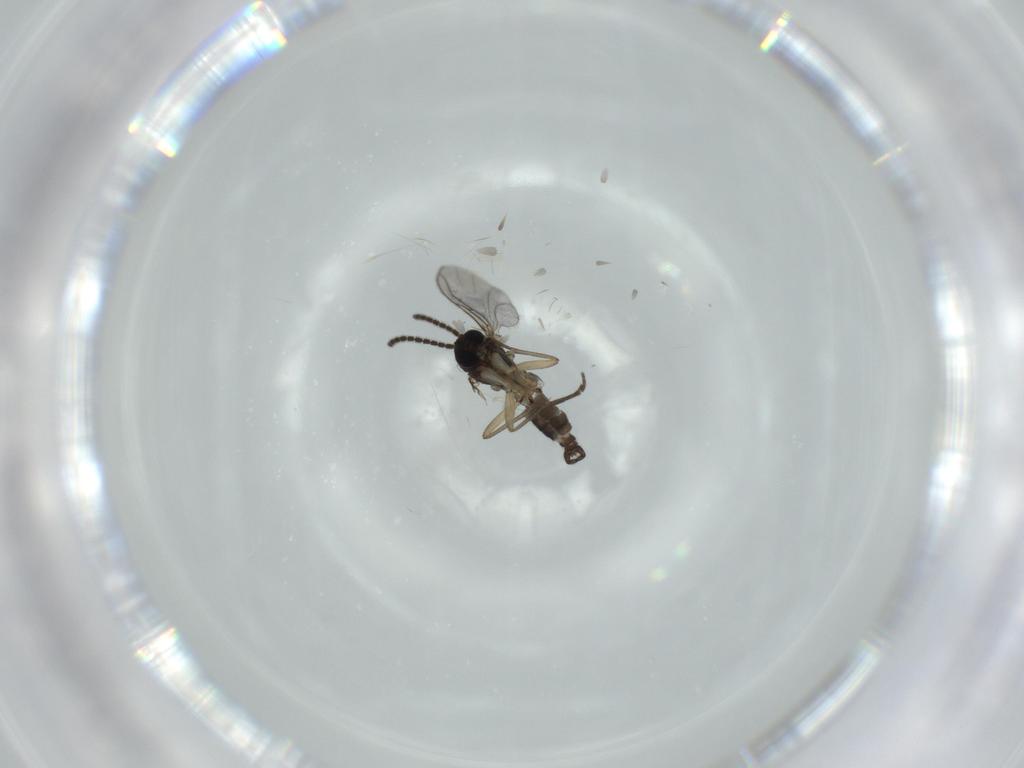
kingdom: Animalia
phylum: Arthropoda
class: Insecta
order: Diptera
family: Sciaridae
